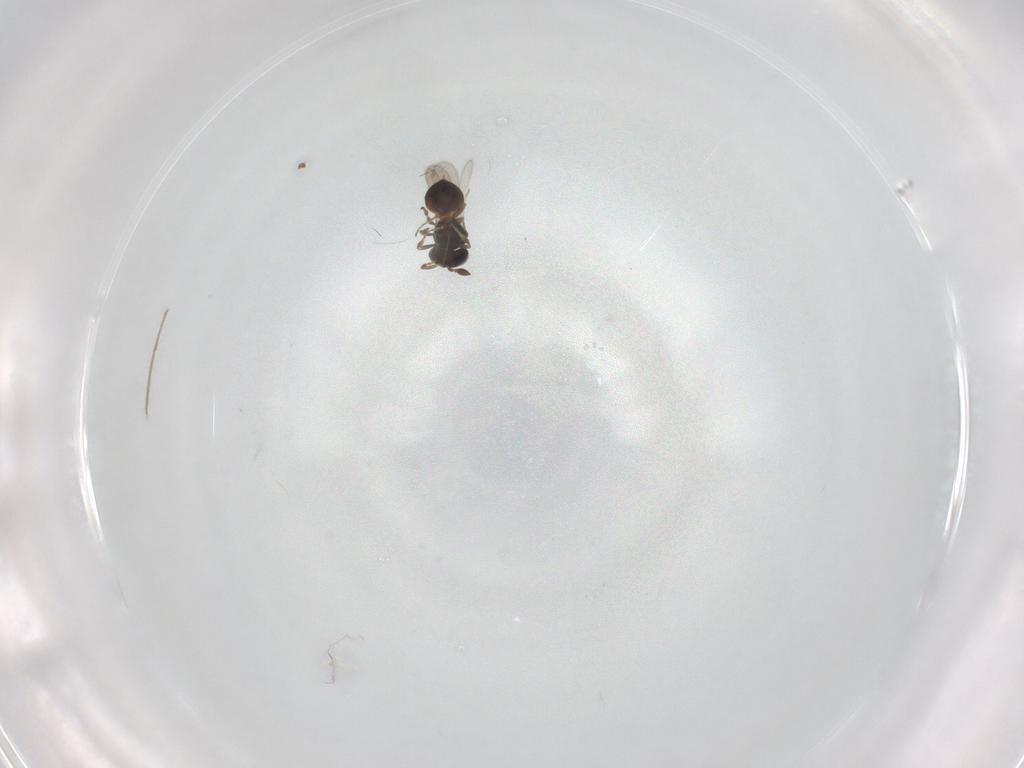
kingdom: Animalia
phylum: Arthropoda
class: Insecta
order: Hymenoptera
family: Scelionidae
